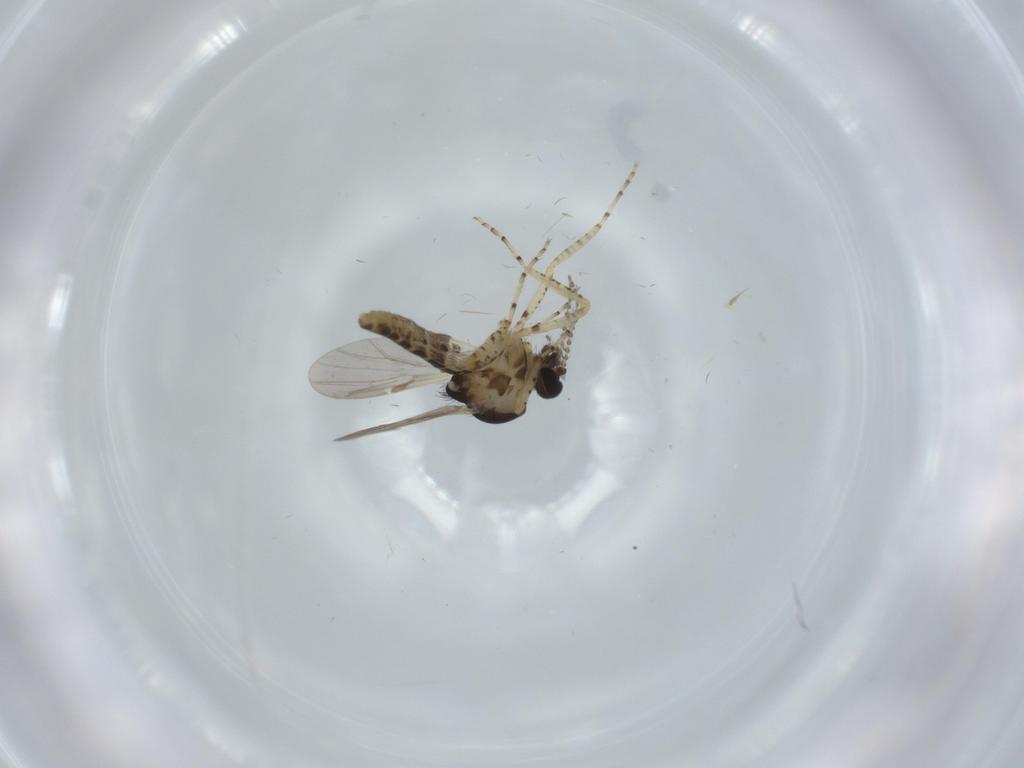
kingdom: Animalia
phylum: Arthropoda
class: Insecta
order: Diptera
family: Ceratopogonidae
